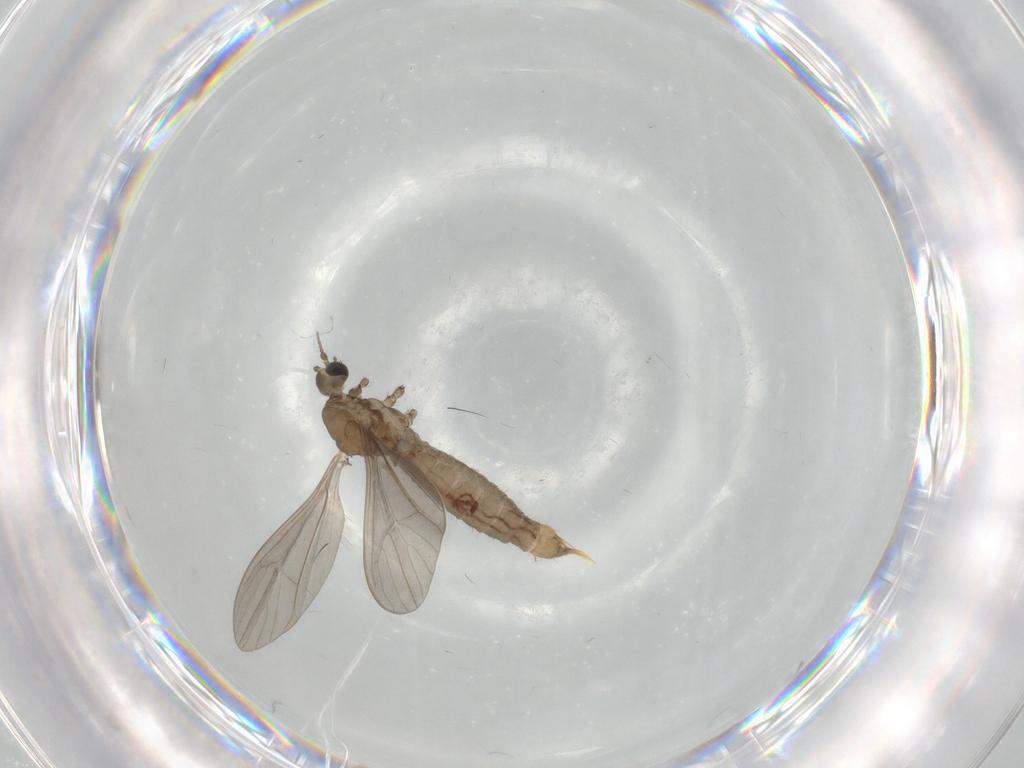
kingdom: Animalia
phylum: Arthropoda
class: Insecta
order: Diptera
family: Limoniidae
